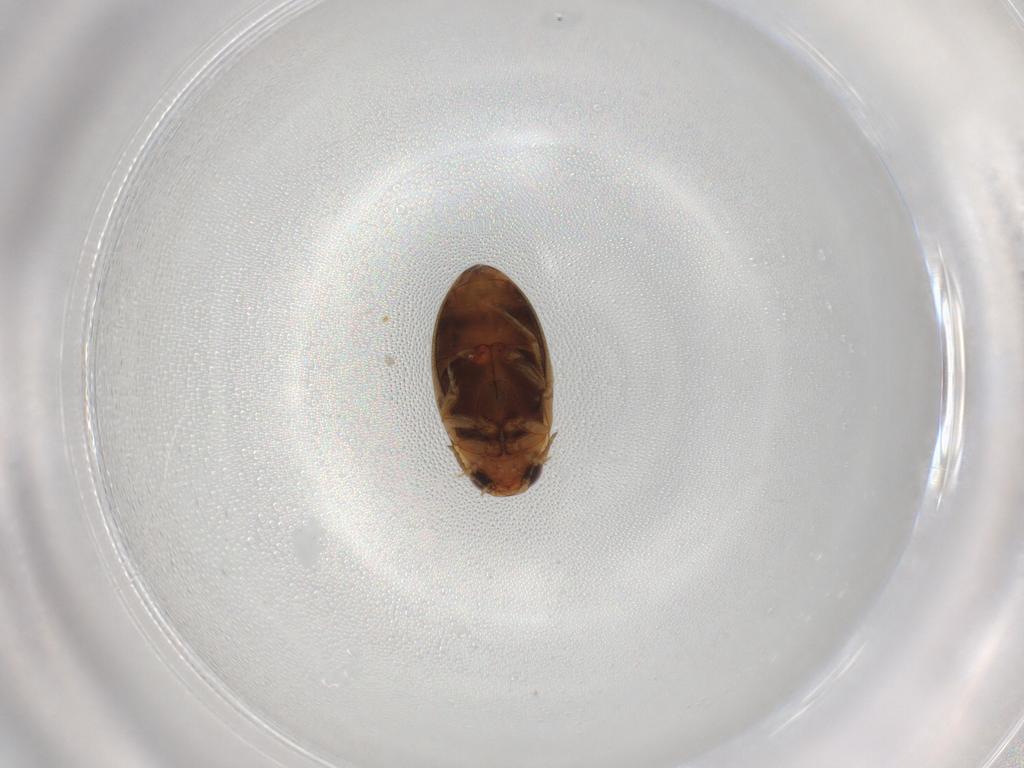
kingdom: Animalia
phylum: Arthropoda
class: Insecta
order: Coleoptera
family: Dytiscidae
